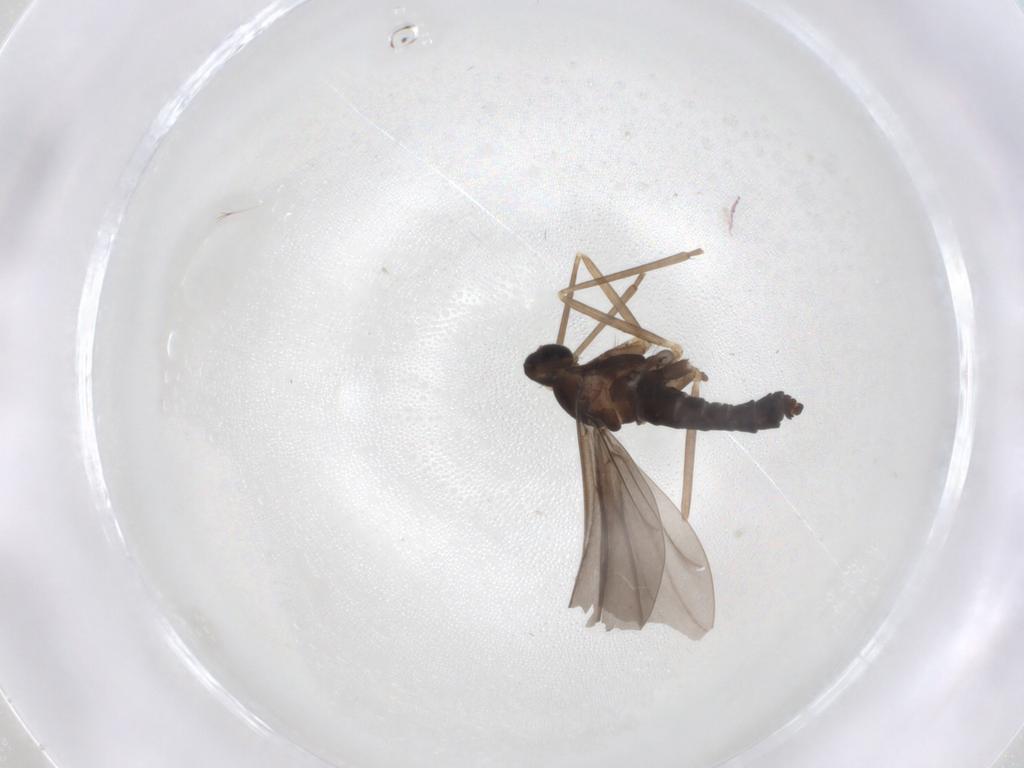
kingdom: Animalia
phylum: Arthropoda
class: Insecta
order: Diptera
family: Cecidomyiidae
